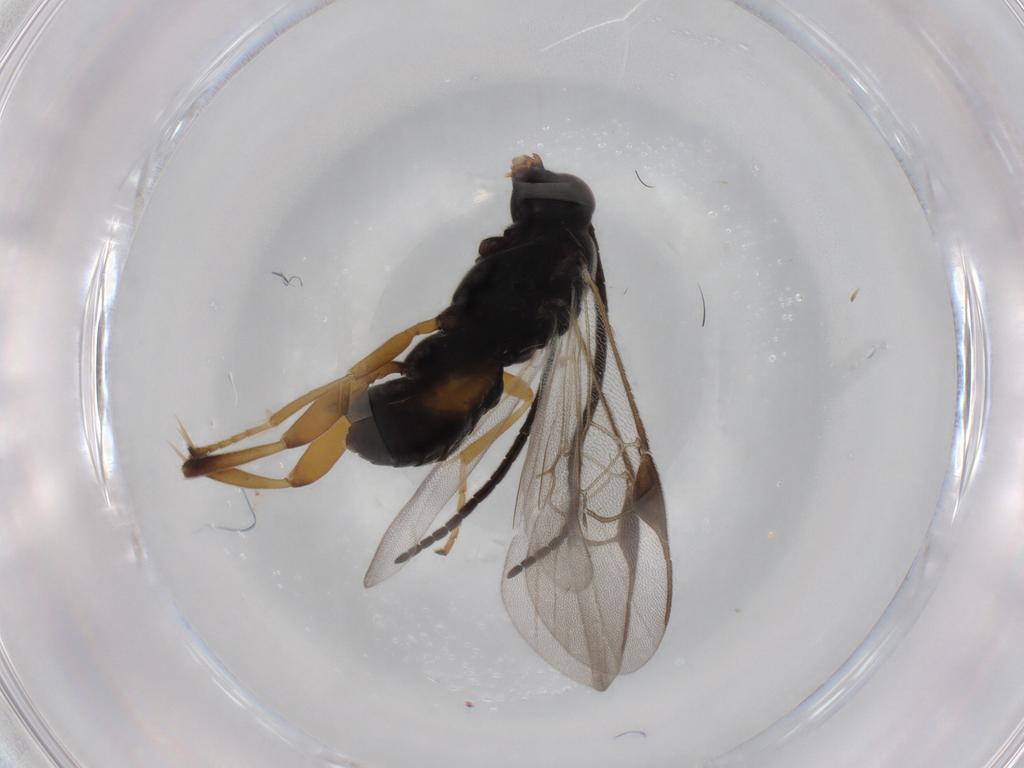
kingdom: Animalia
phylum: Arthropoda
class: Insecta
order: Hymenoptera
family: Braconidae
